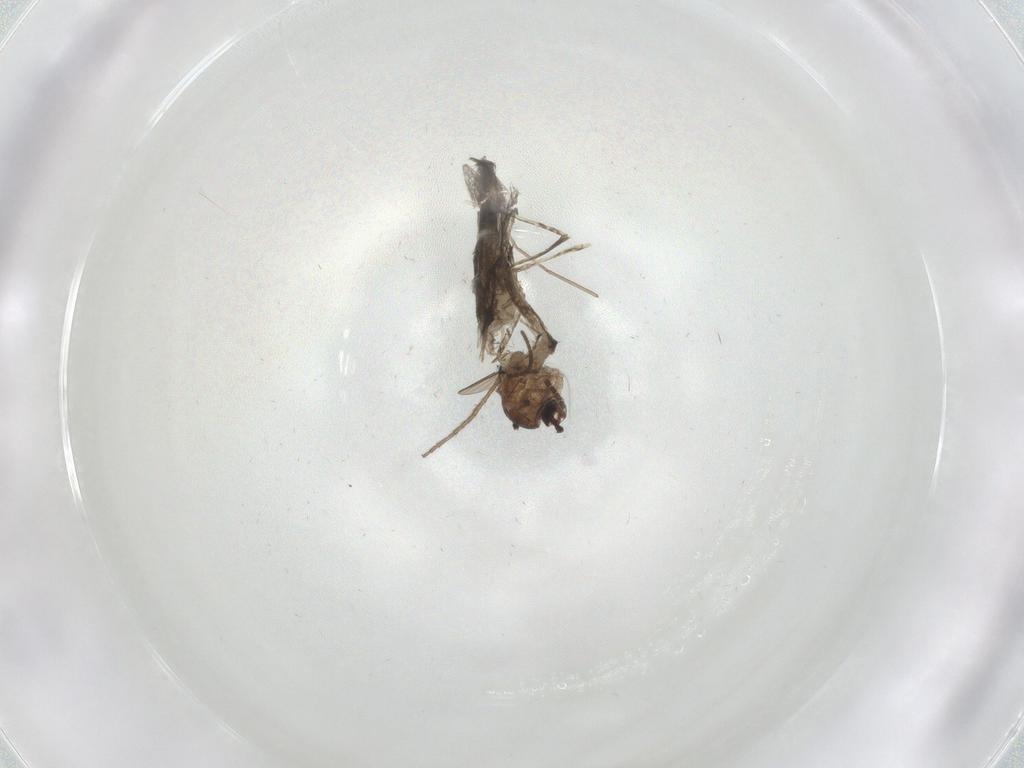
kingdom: Animalia
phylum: Arthropoda
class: Insecta
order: Diptera
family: Cecidomyiidae
